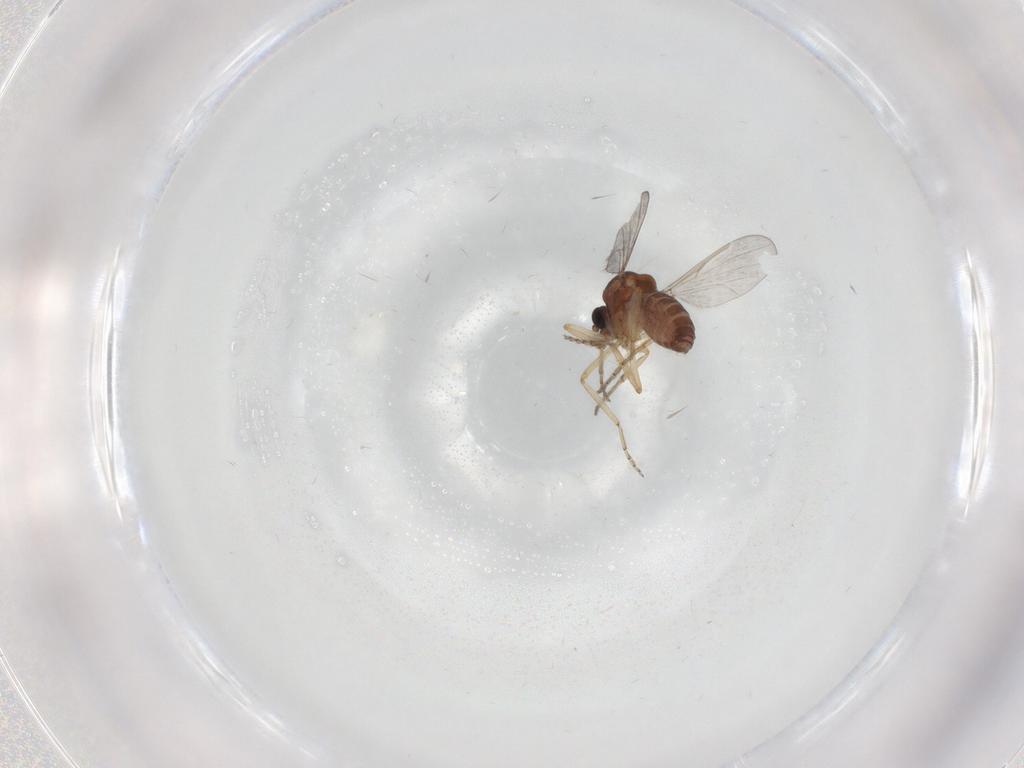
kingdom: Animalia
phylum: Arthropoda
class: Insecta
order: Diptera
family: Ceratopogonidae
